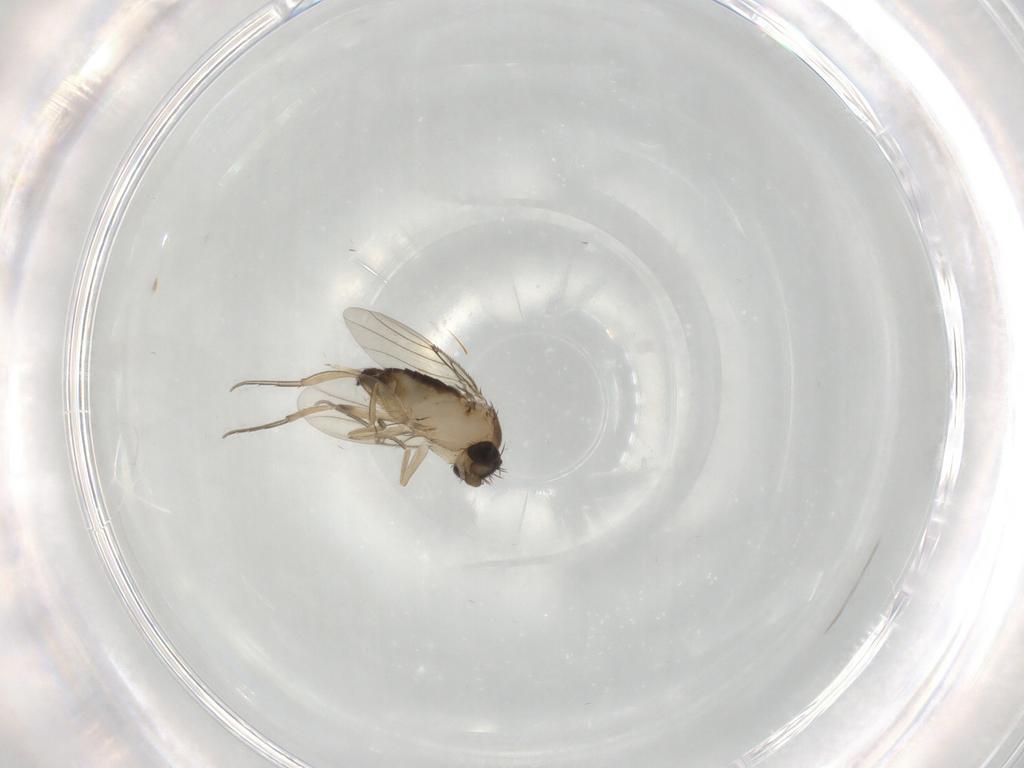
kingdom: Animalia
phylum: Arthropoda
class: Insecta
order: Diptera
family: Phoridae
